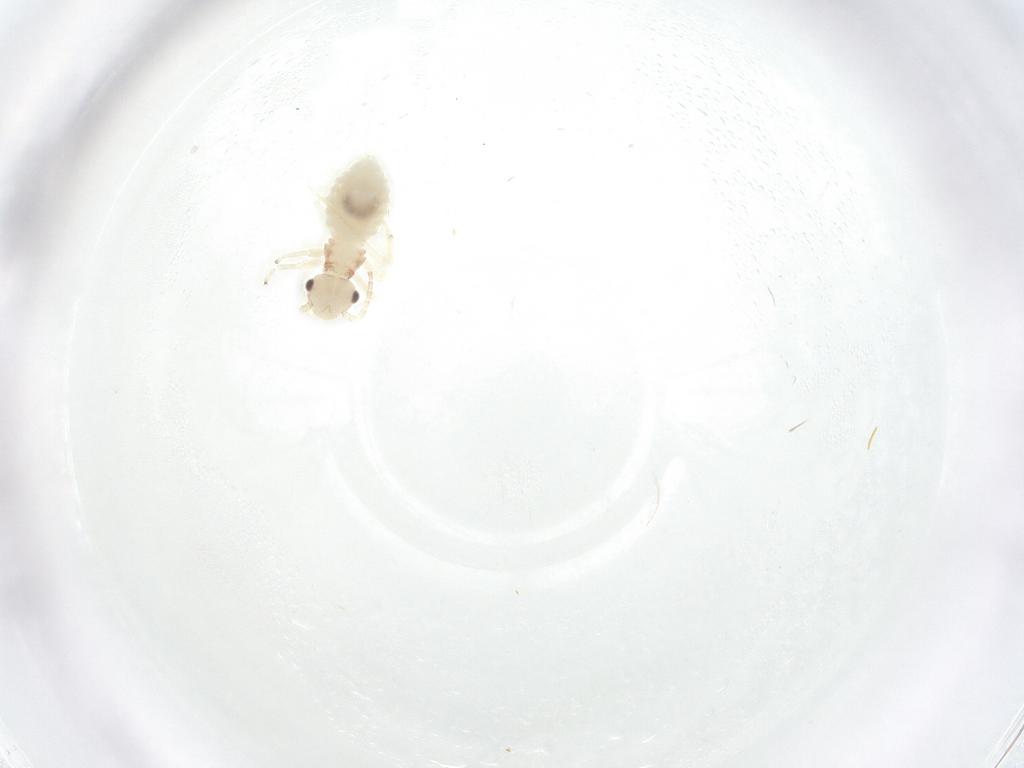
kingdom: Animalia
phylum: Arthropoda
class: Insecta
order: Psocodea
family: Amphipsocidae
